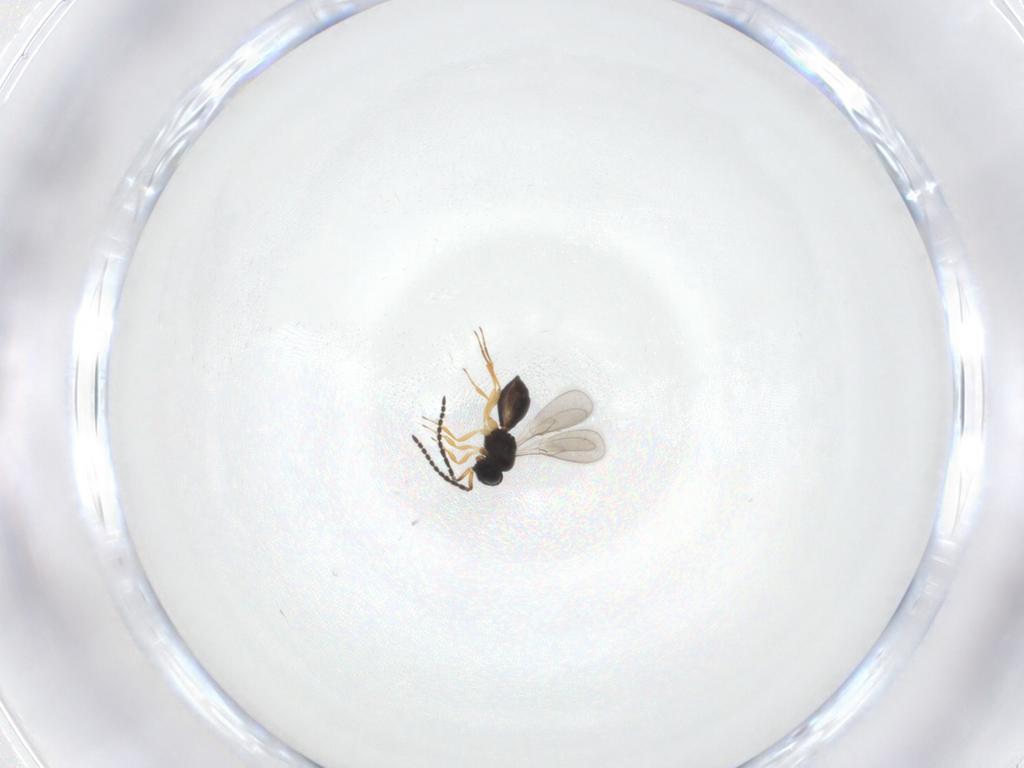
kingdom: Animalia
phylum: Arthropoda
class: Insecta
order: Hymenoptera
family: Scelionidae
